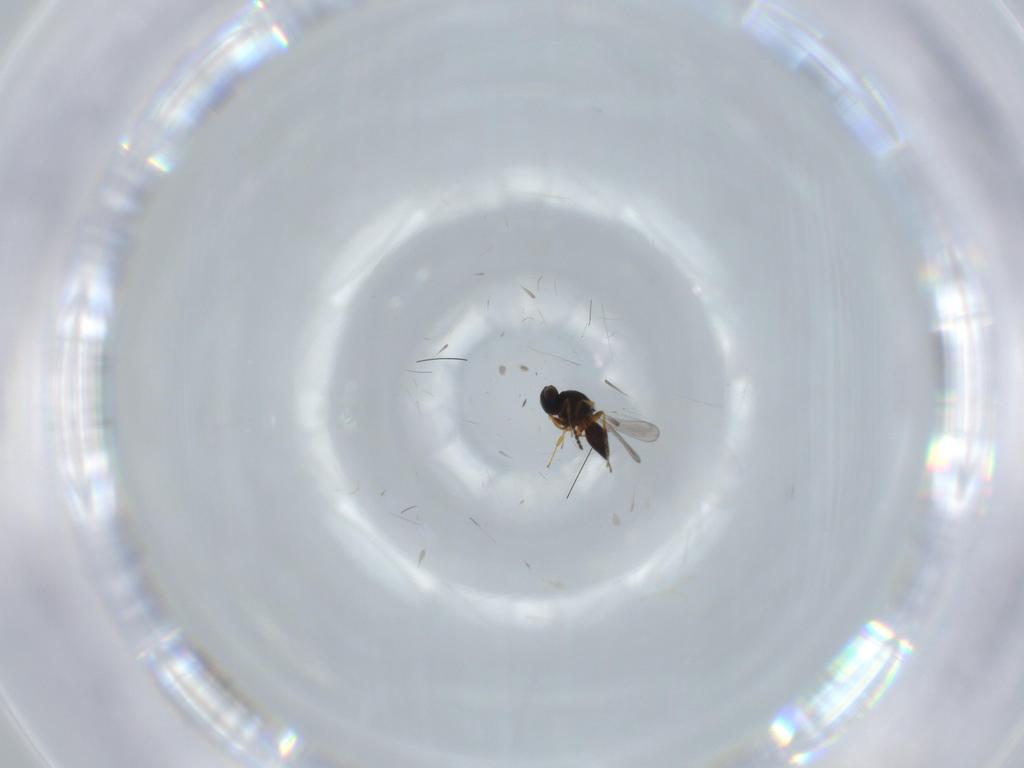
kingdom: Animalia
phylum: Arthropoda
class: Insecta
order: Hymenoptera
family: Platygastridae
